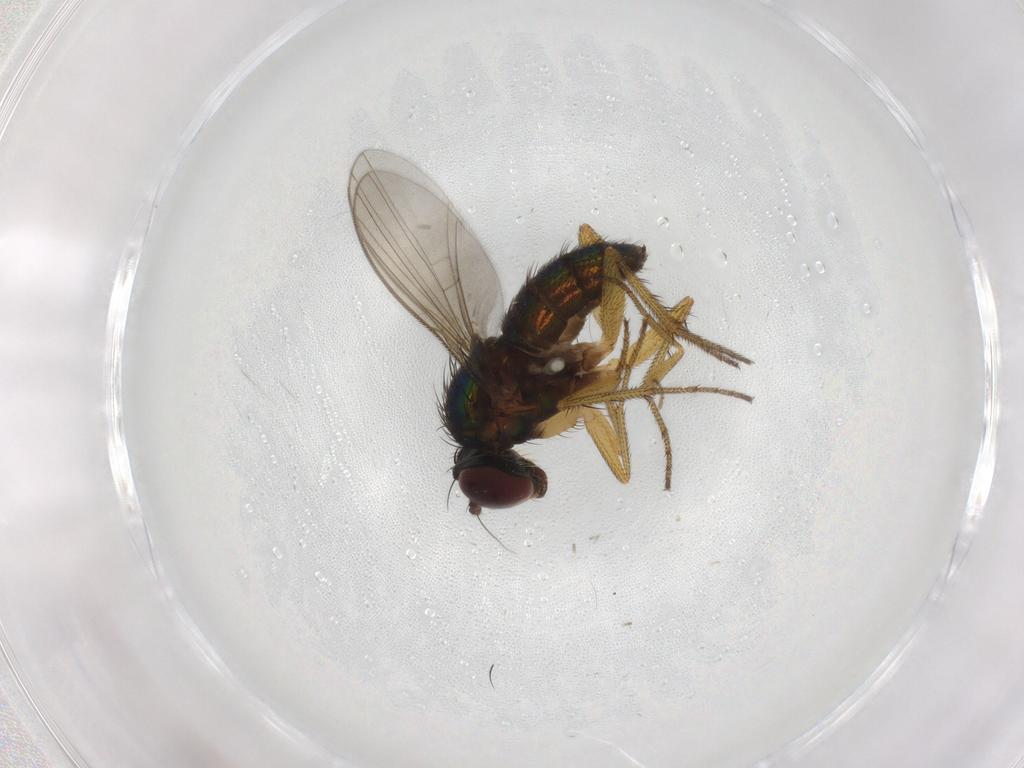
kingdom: Animalia
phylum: Arthropoda
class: Insecta
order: Diptera
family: Dolichopodidae
